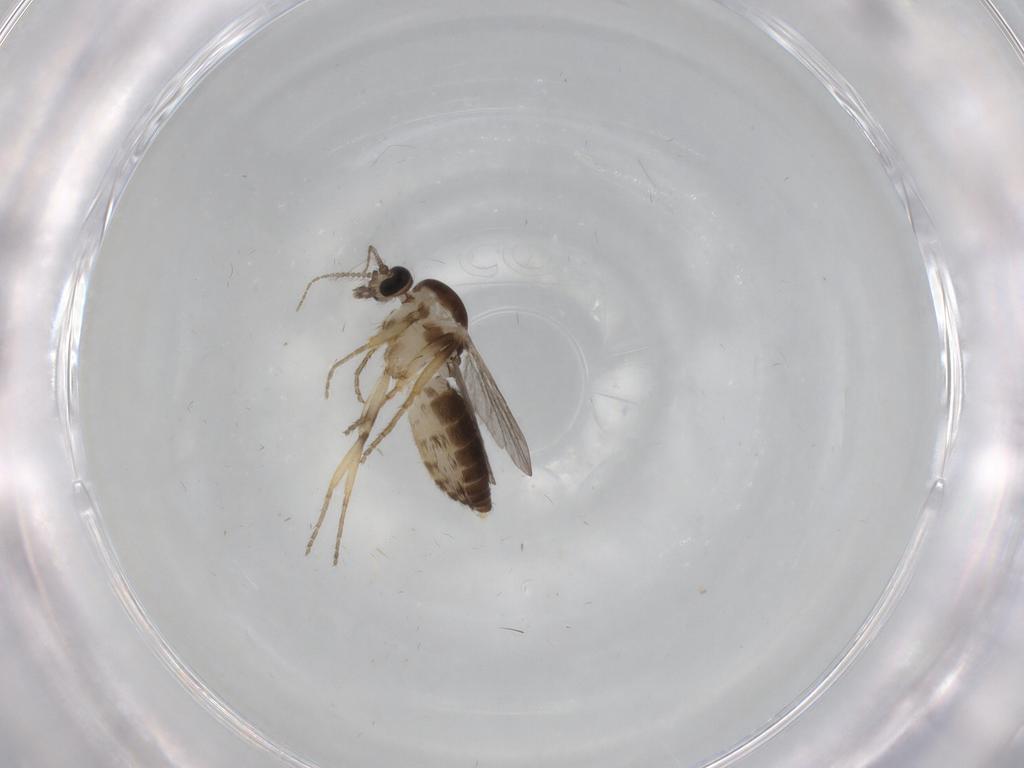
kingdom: Animalia
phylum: Arthropoda
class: Insecta
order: Diptera
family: Ceratopogonidae
